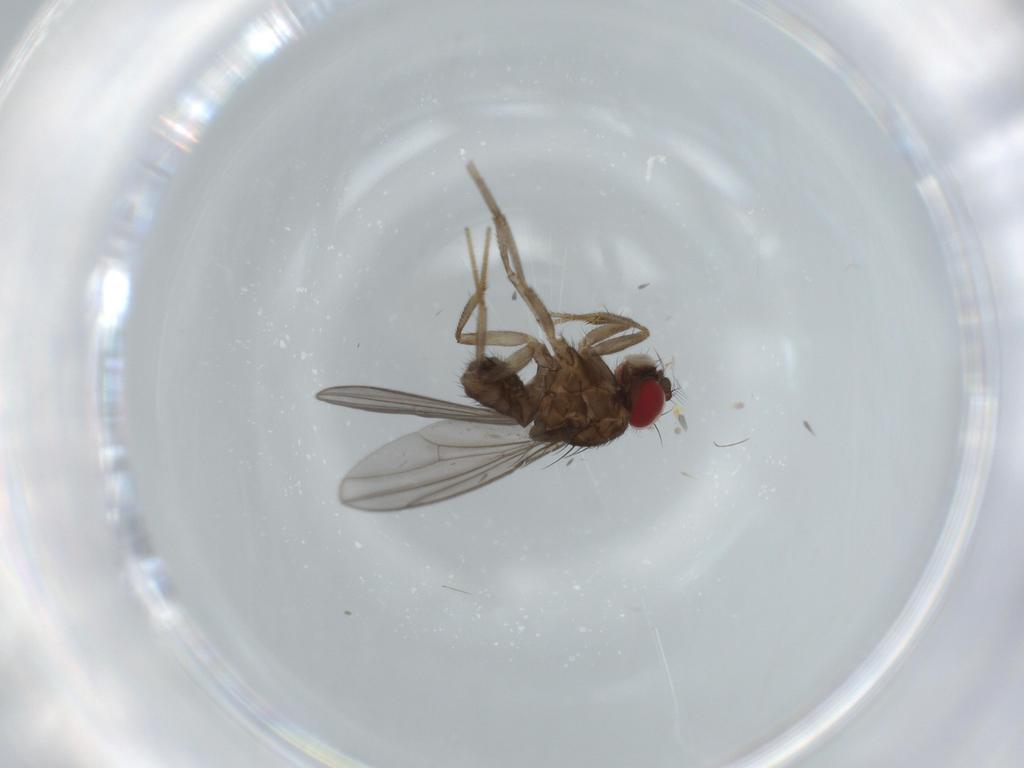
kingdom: Animalia
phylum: Arthropoda
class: Insecta
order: Diptera
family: Drosophilidae
